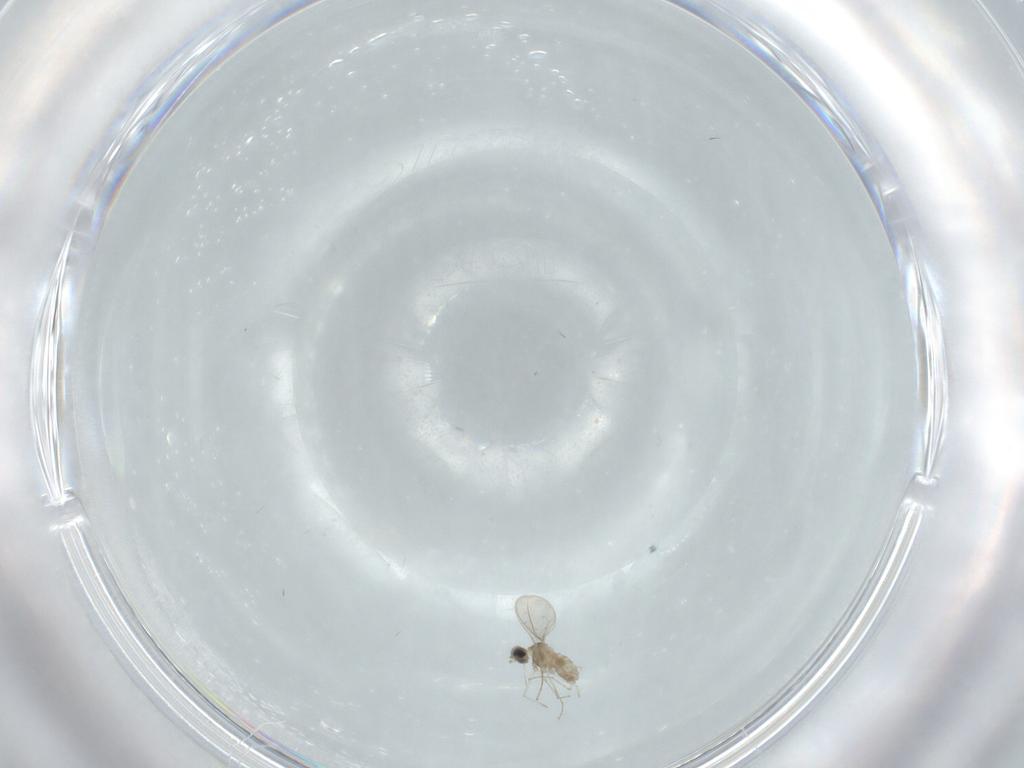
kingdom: Animalia
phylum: Arthropoda
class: Insecta
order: Diptera
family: Cecidomyiidae
